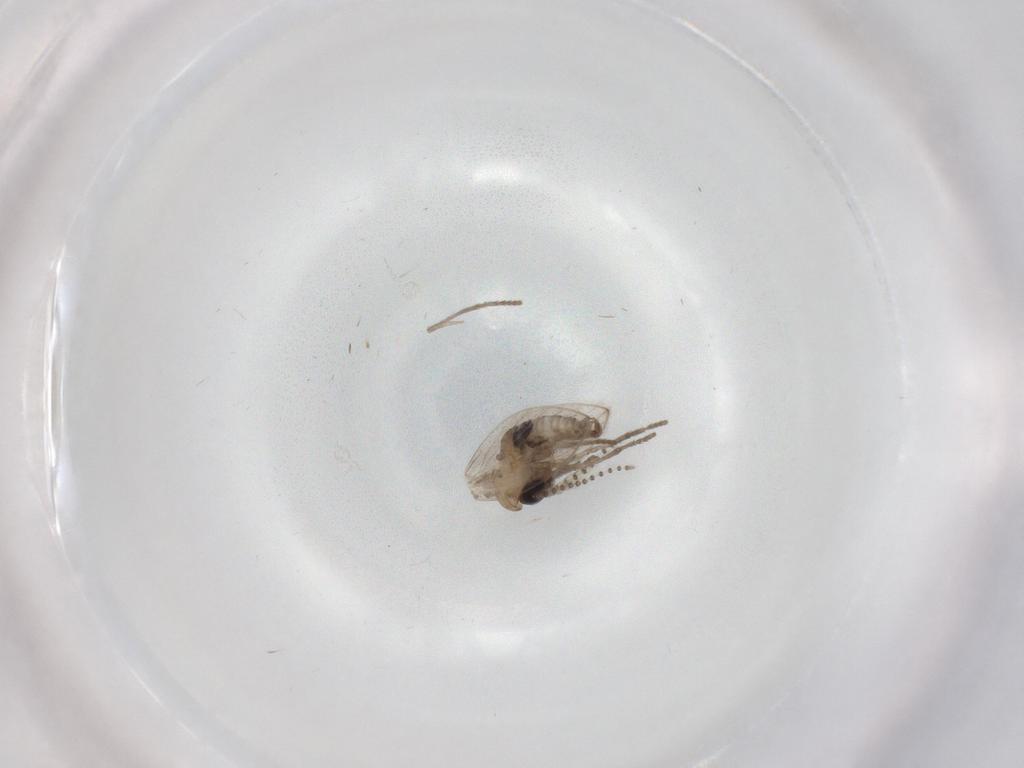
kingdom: Animalia
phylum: Arthropoda
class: Insecta
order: Diptera
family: Psychodidae
